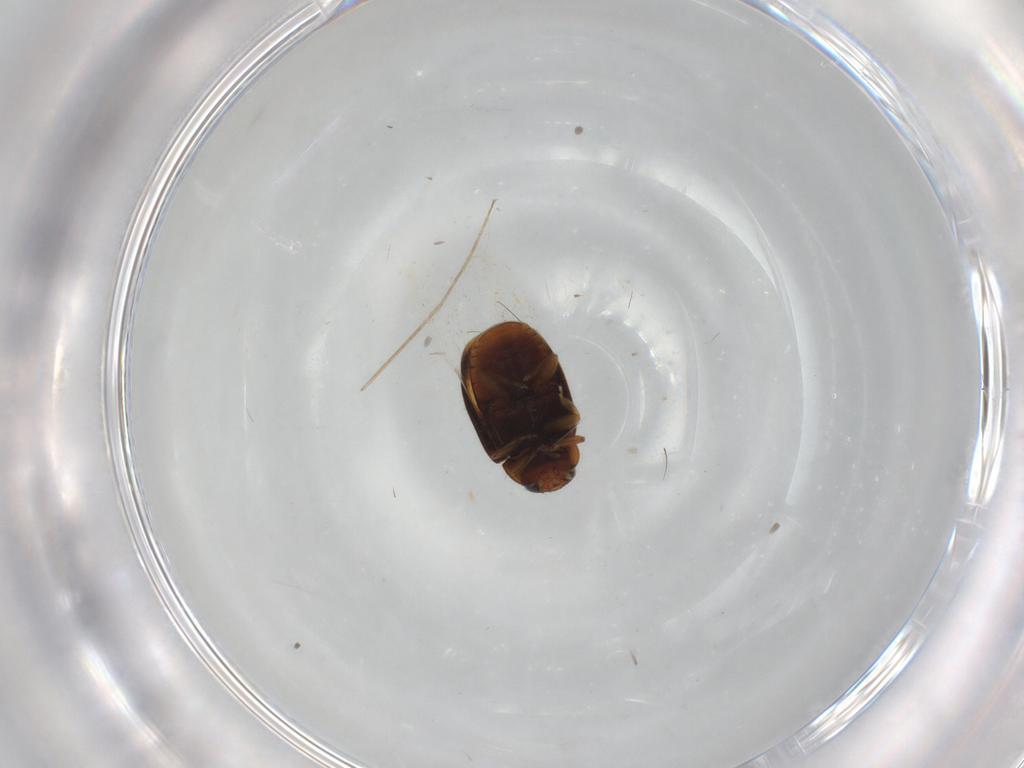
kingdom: Animalia
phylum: Arthropoda
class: Insecta
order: Coleoptera
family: Coccinellidae
